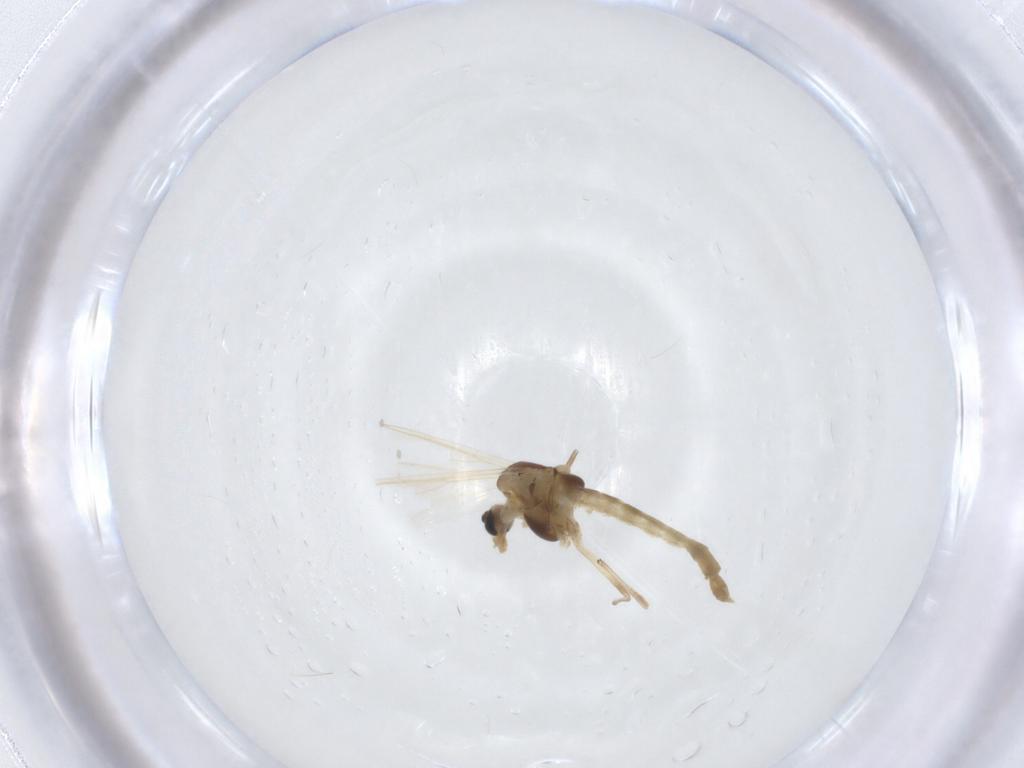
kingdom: Animalia
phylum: Arthropoda
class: Insecta
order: Diptera
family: Chironomidae
